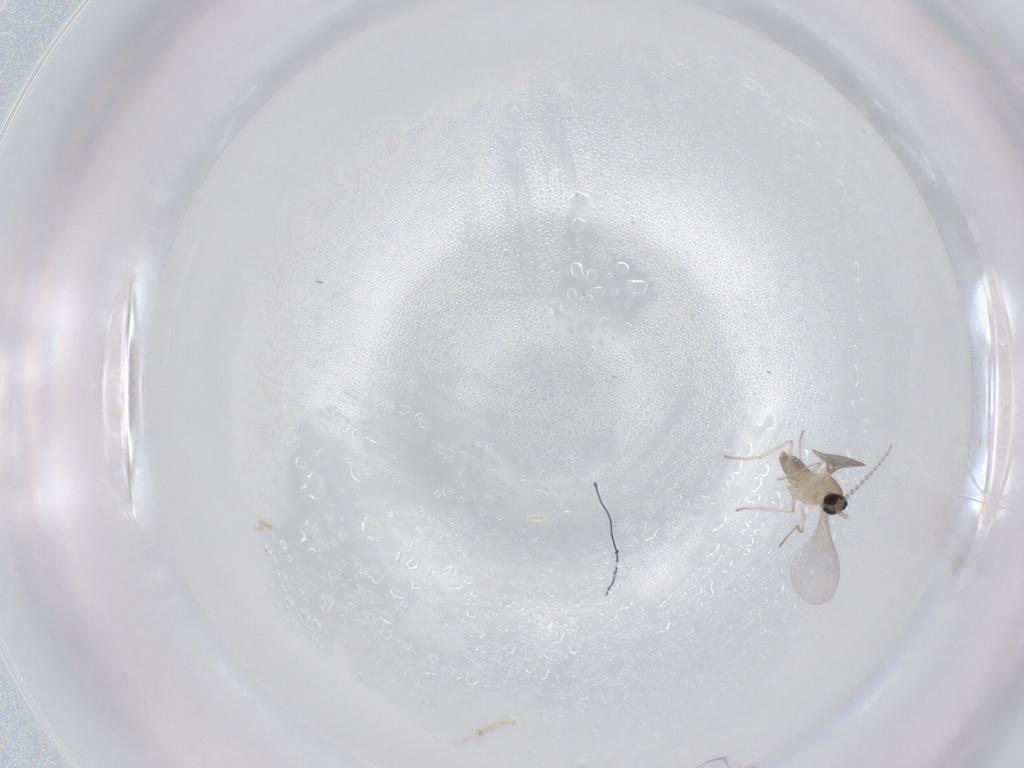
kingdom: Animalia
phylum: Arthropoda
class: Insecta
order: Diptera
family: Cecidomyiidae
